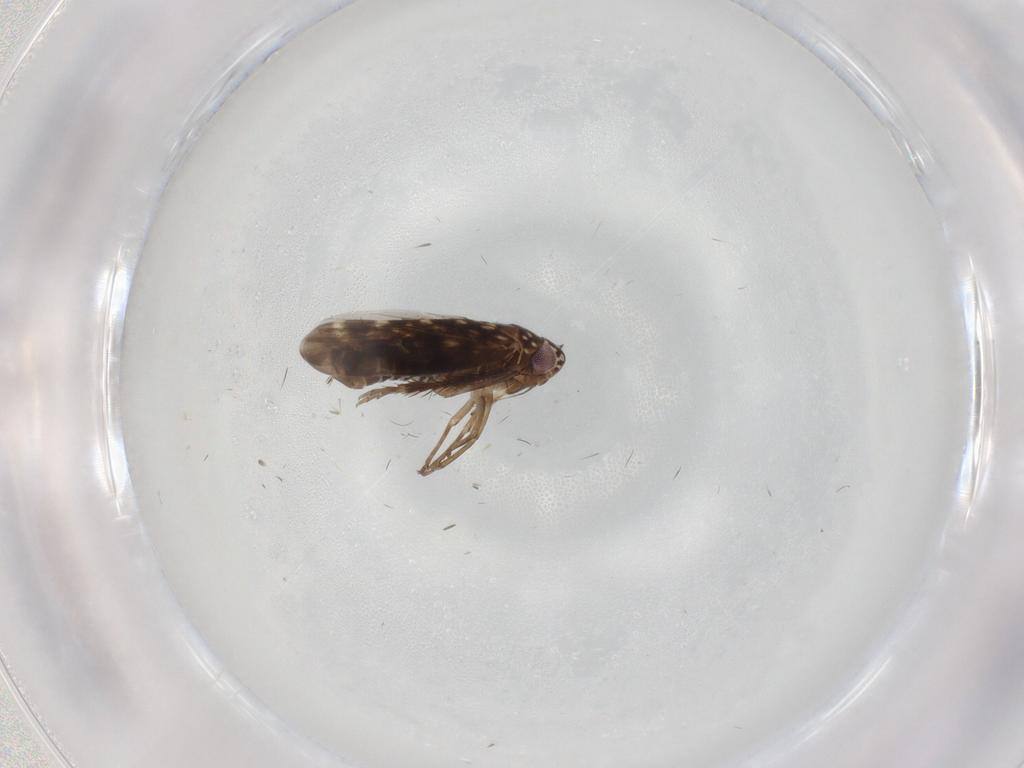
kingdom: Animalia
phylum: Arthropoda
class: Insecta
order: Hemiptera
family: Cicadellidae
